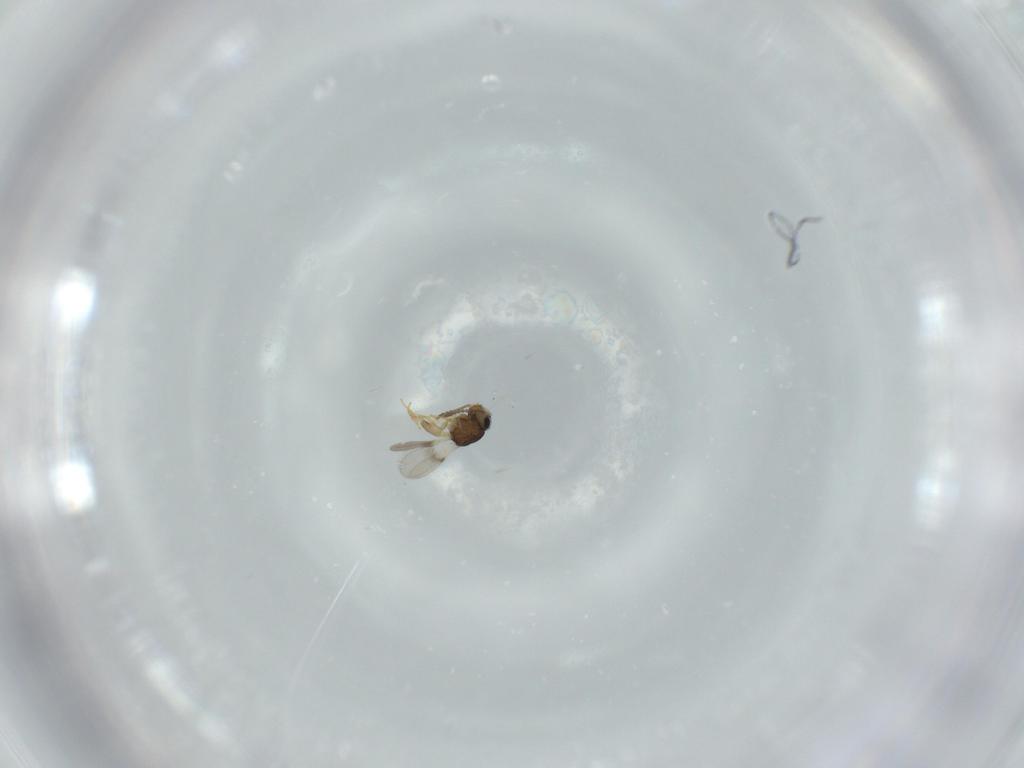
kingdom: Animalia
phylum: Arthropoda
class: Insecta
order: Hymenoptera
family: Scelionidae
